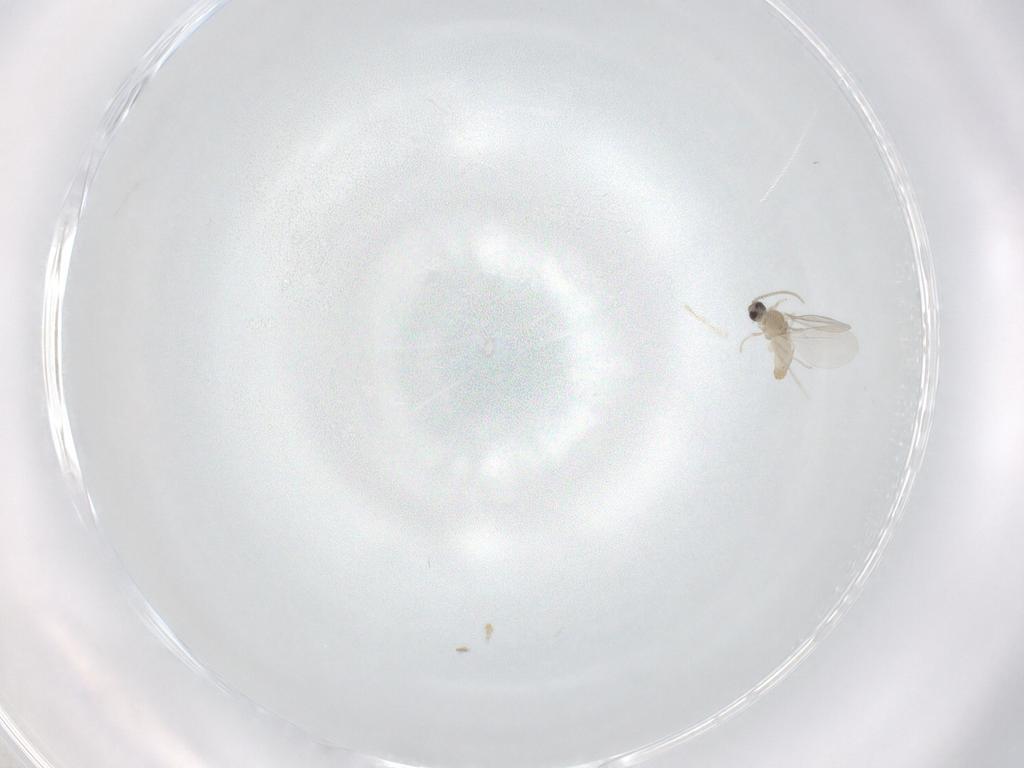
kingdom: Animalia
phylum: Arthropoda
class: Insecta
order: Diptera
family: Cecidomyiidae
